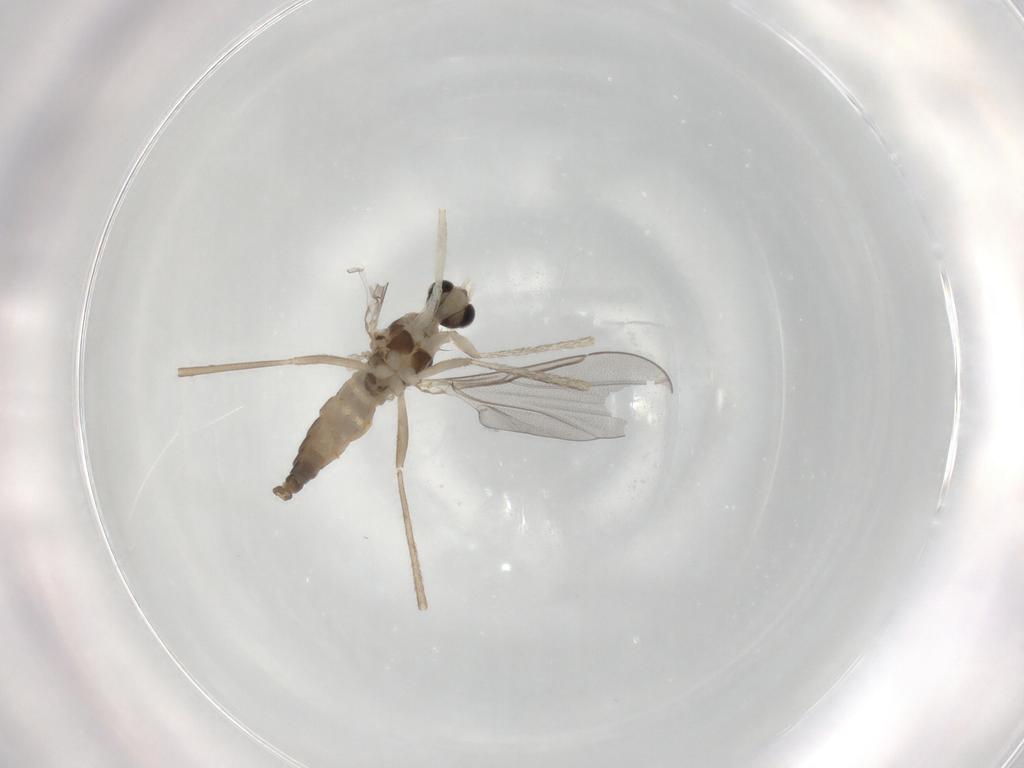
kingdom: Animalia
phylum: Arthropoda
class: Insecta
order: Diptera
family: Cecidomyiidae
